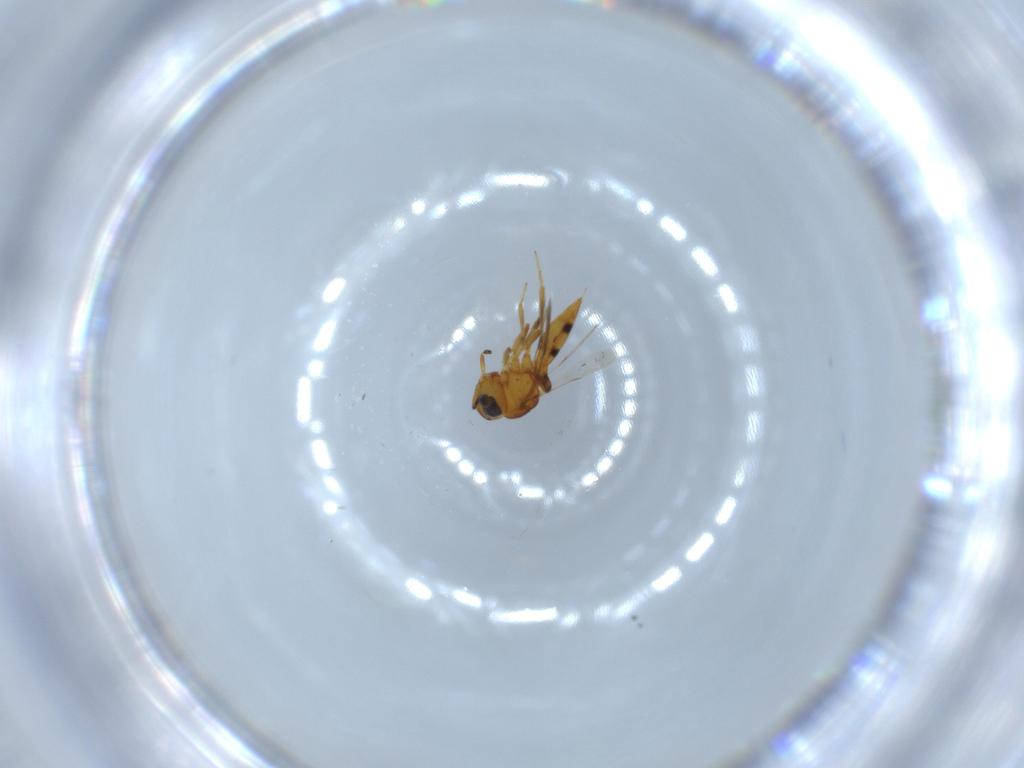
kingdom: Animalia
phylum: Arthropoda
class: Insecta
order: Hymenoptera
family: Scelionidae
